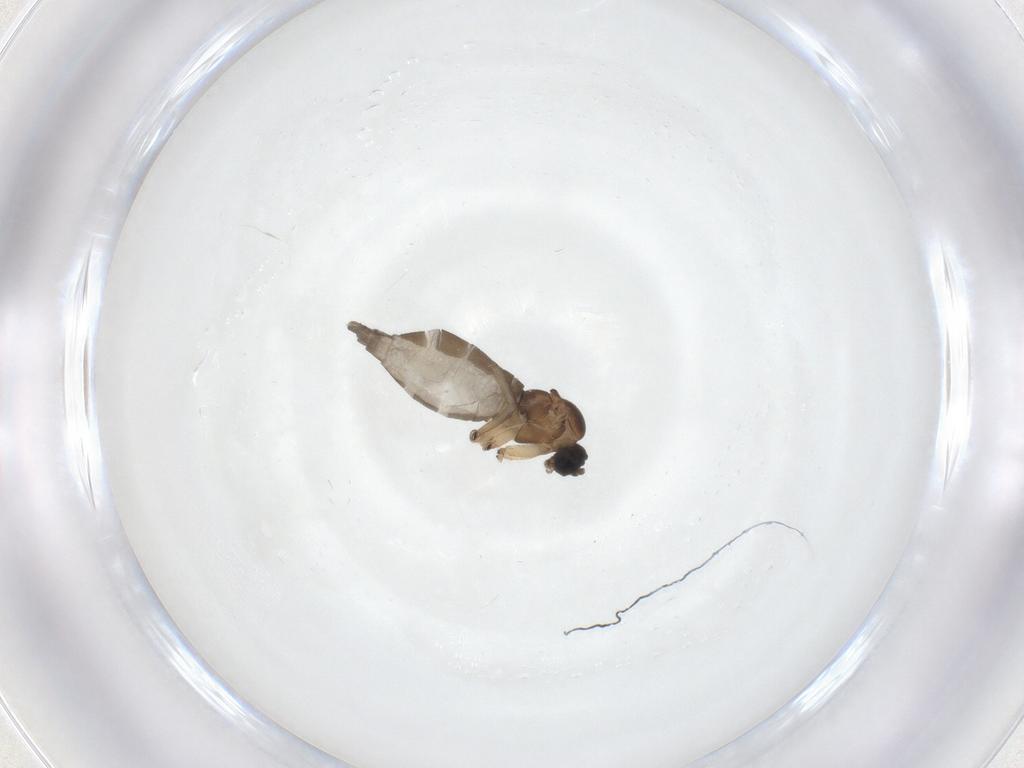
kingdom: Animalia
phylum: Arthropoda
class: Insecta
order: Diptera
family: Sciaridae
